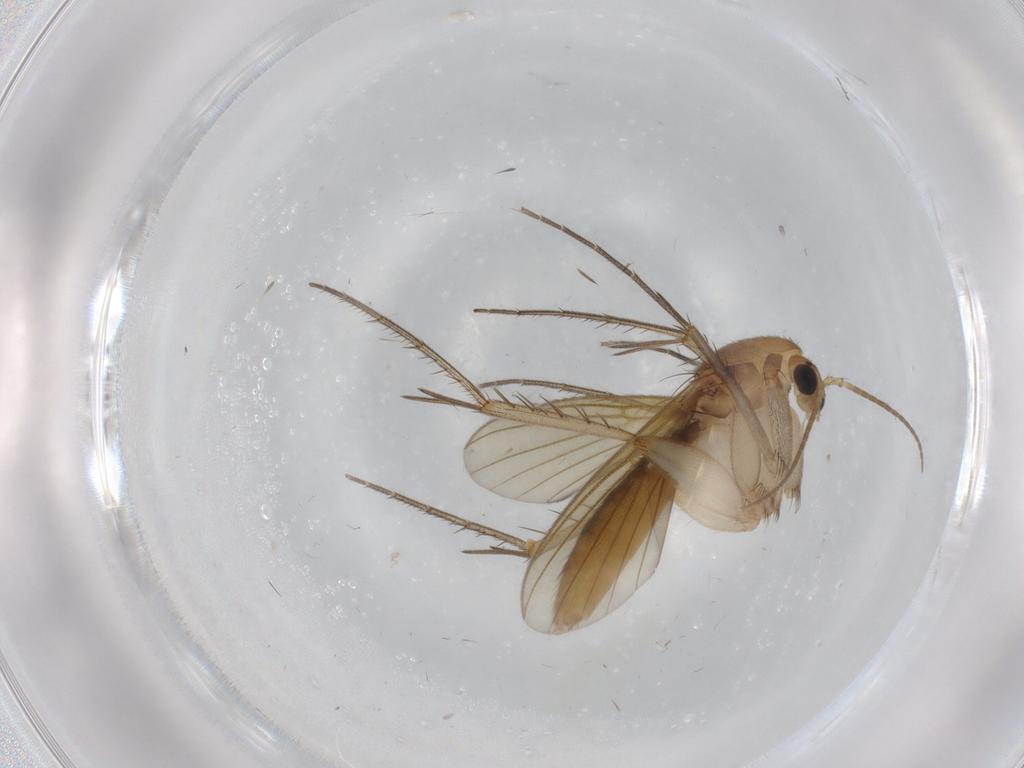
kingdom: Animalia
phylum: Arthropoda
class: Insecta
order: Diptera
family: Mycetophilidae
